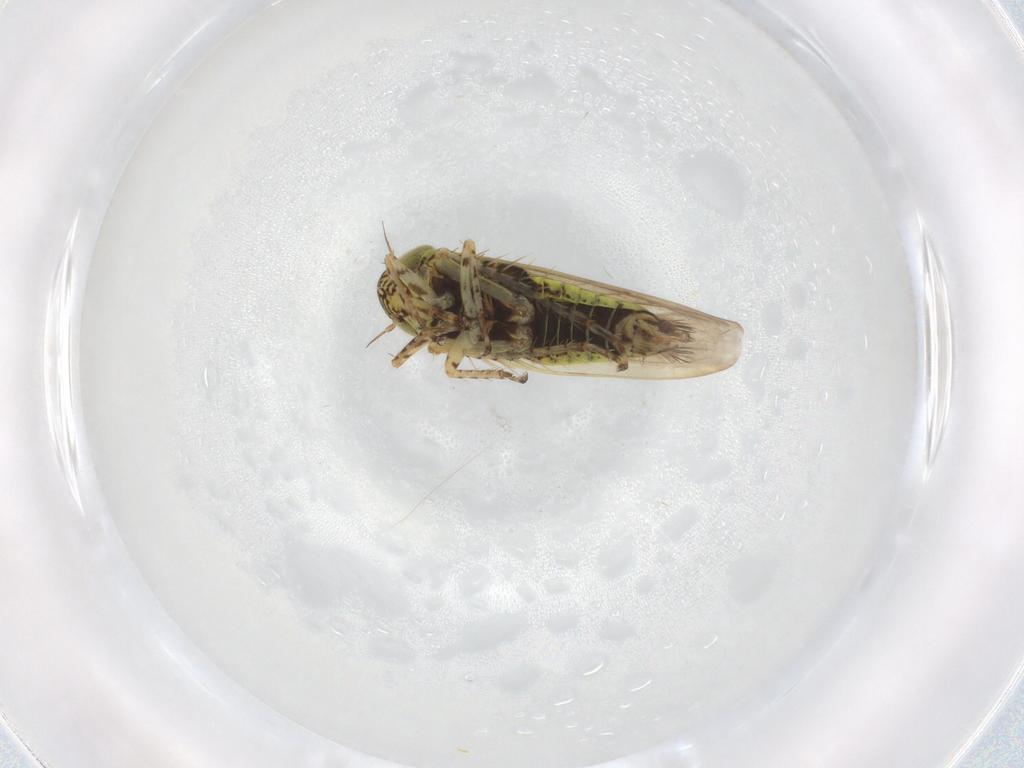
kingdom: Animalia
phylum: Arthropoda
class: Insecta
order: Hemiptera
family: Cicadellidae
